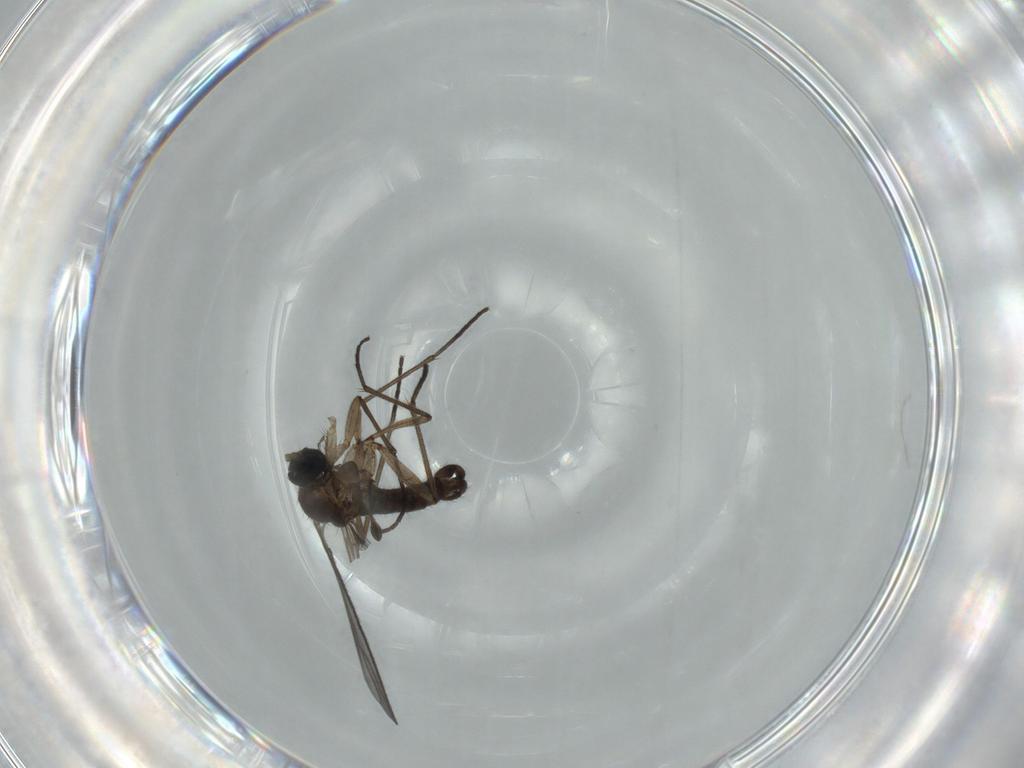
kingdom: Animalia
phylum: Arthropoda
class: Insecta
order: Diptera
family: Sciaridae
